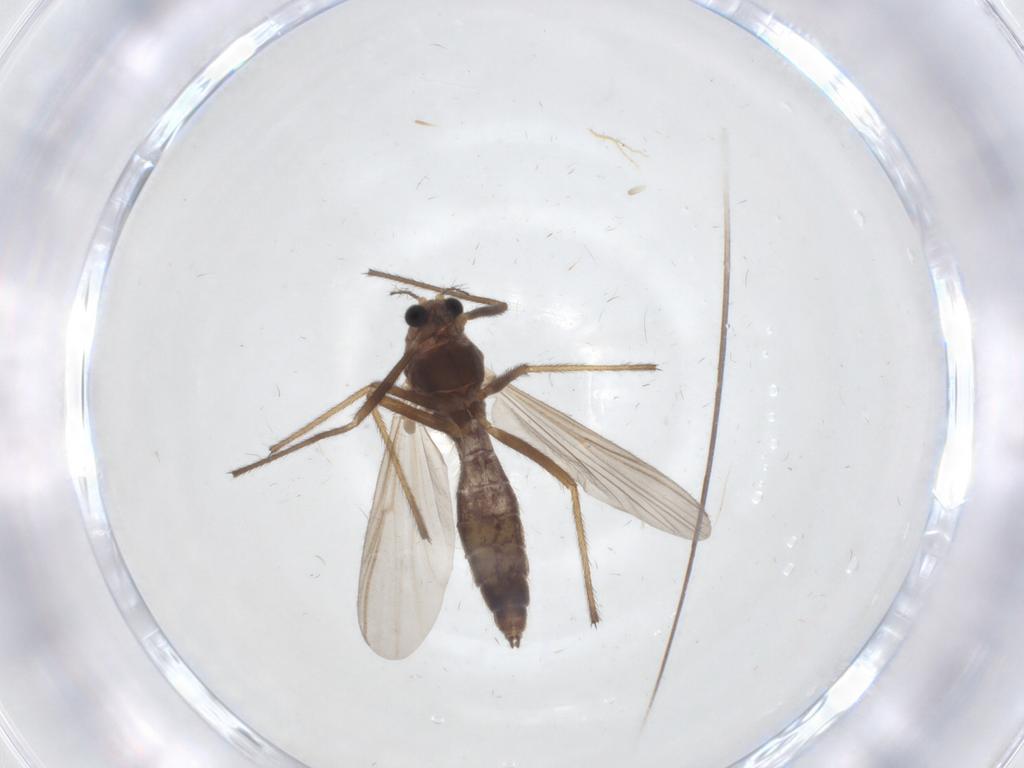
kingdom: Animalia
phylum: Arthropoda
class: Insecta
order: Diptera
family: Chironomidae
